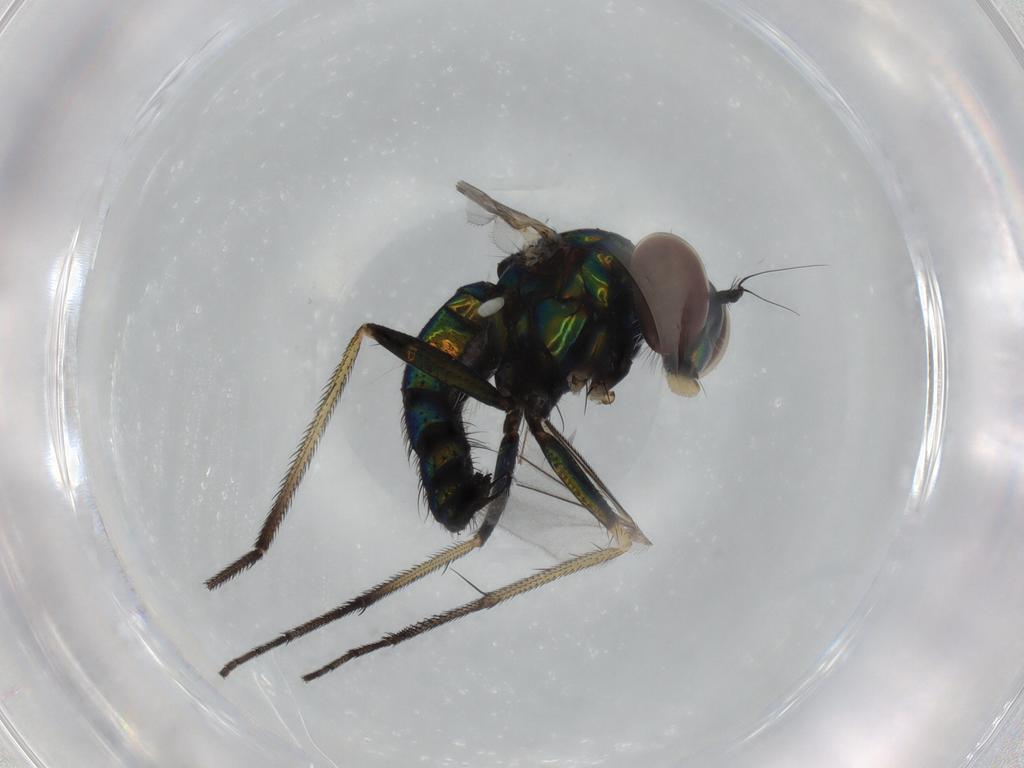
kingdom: Animalia
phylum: Arthropoda
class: Insecta
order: Diptera
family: Dolichopodidae
